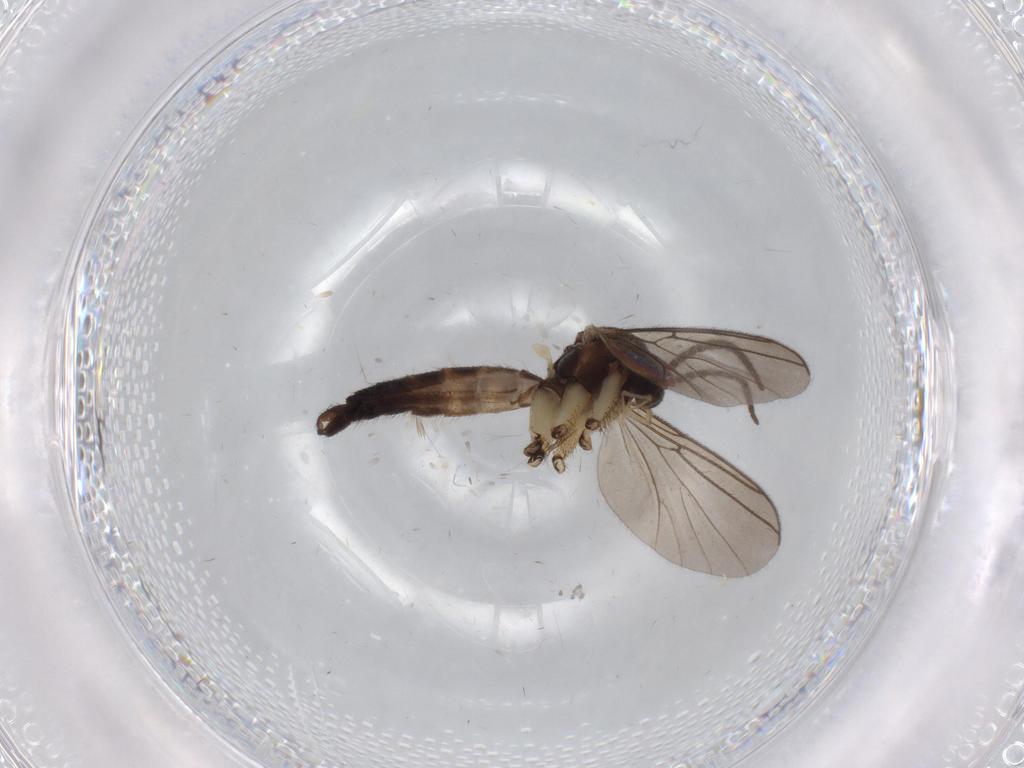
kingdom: Animalia
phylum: Arthropoda
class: Insecta
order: Diptera
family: Mycetophilidae
